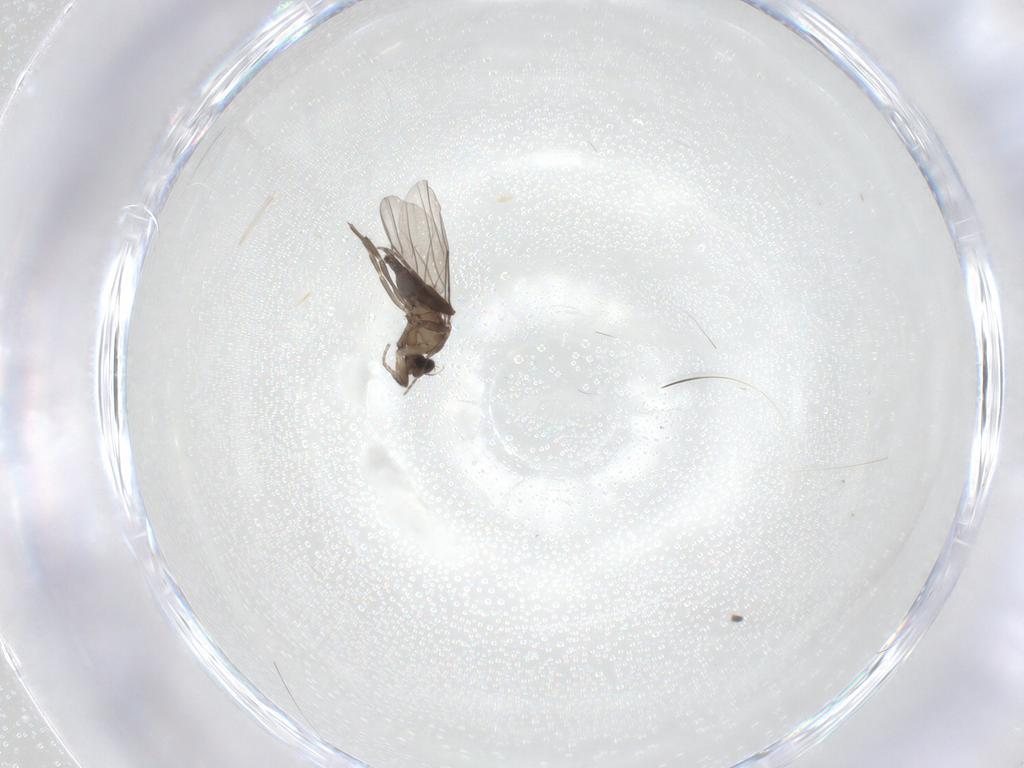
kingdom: Animalia
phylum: Arthropoda
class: Insecta
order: Diptera
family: Phoridae
